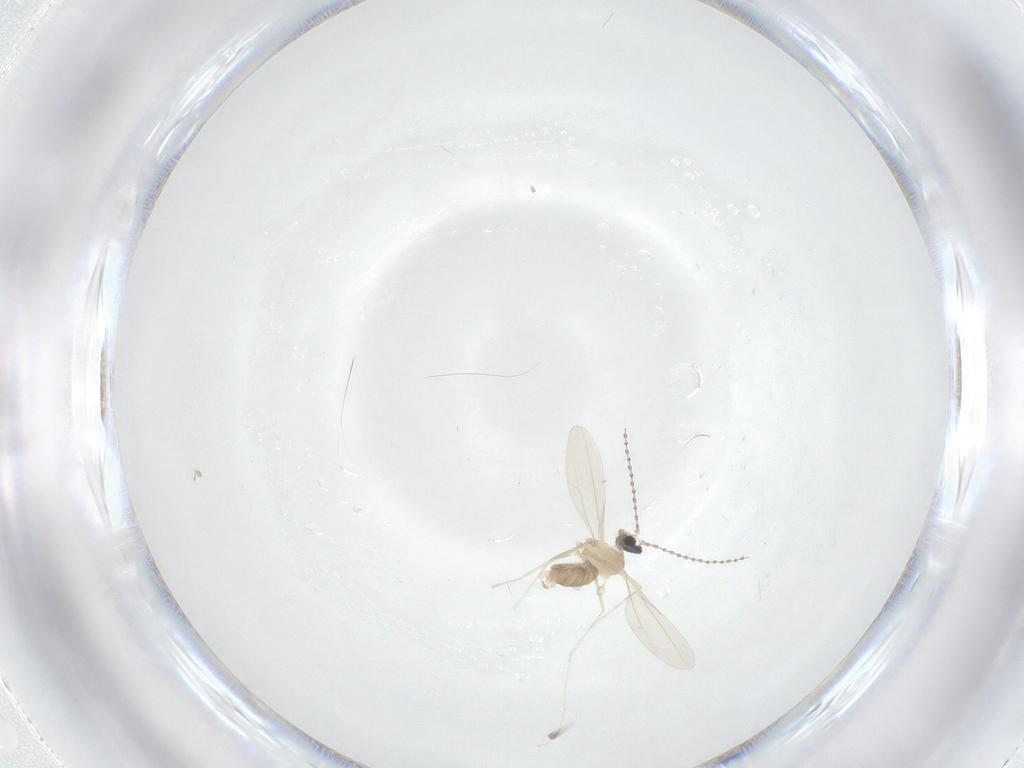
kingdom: Animalia
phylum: Arthropoda
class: Insecta
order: Diptera
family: Cecidomyiidae
